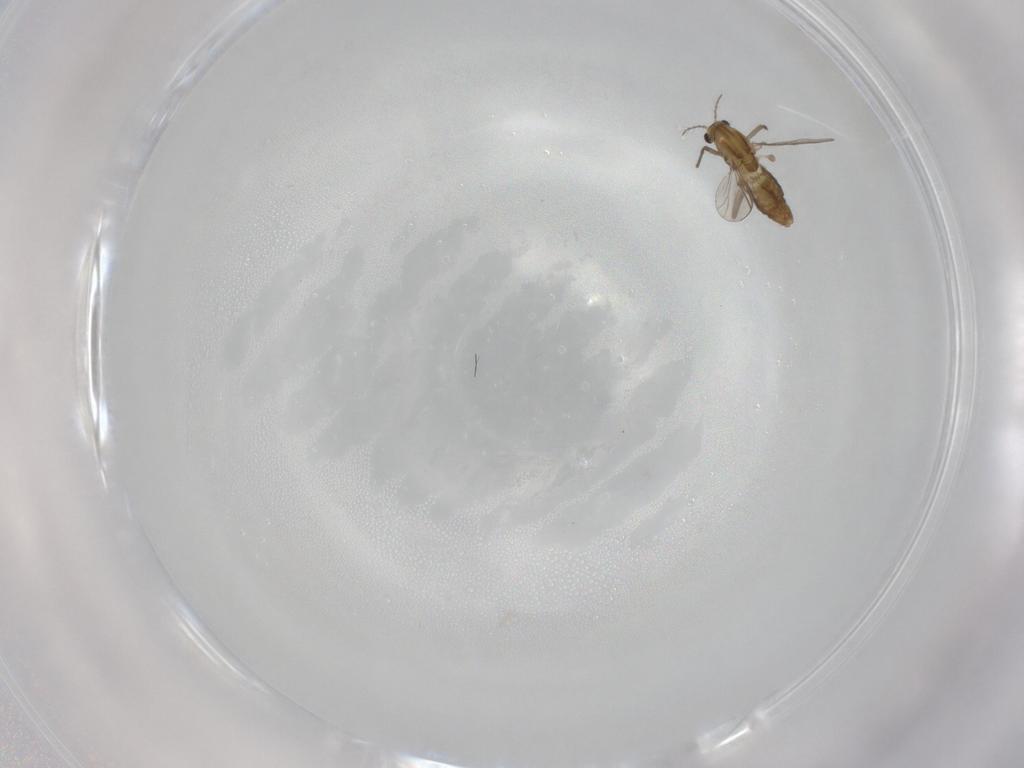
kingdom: Animalia
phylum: Arthropoda
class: Insecta
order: Diptera
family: Chironomidae
